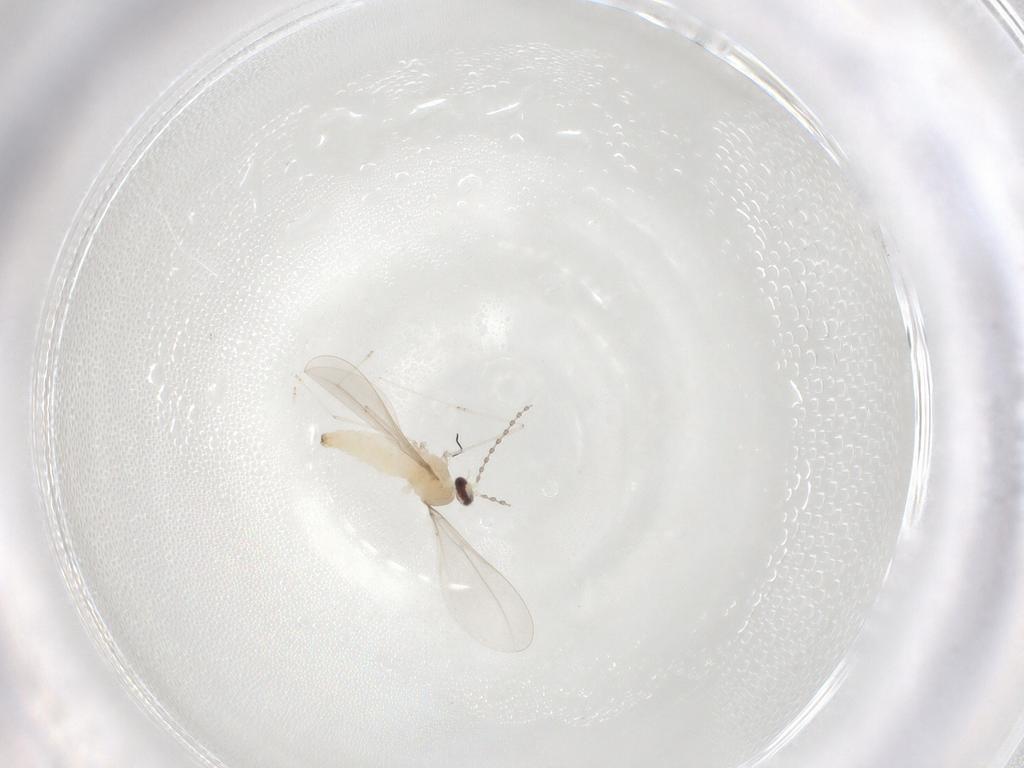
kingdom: Animalia
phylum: Arthropoda
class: Insecta
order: Diptera
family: Cecidomyiidae
